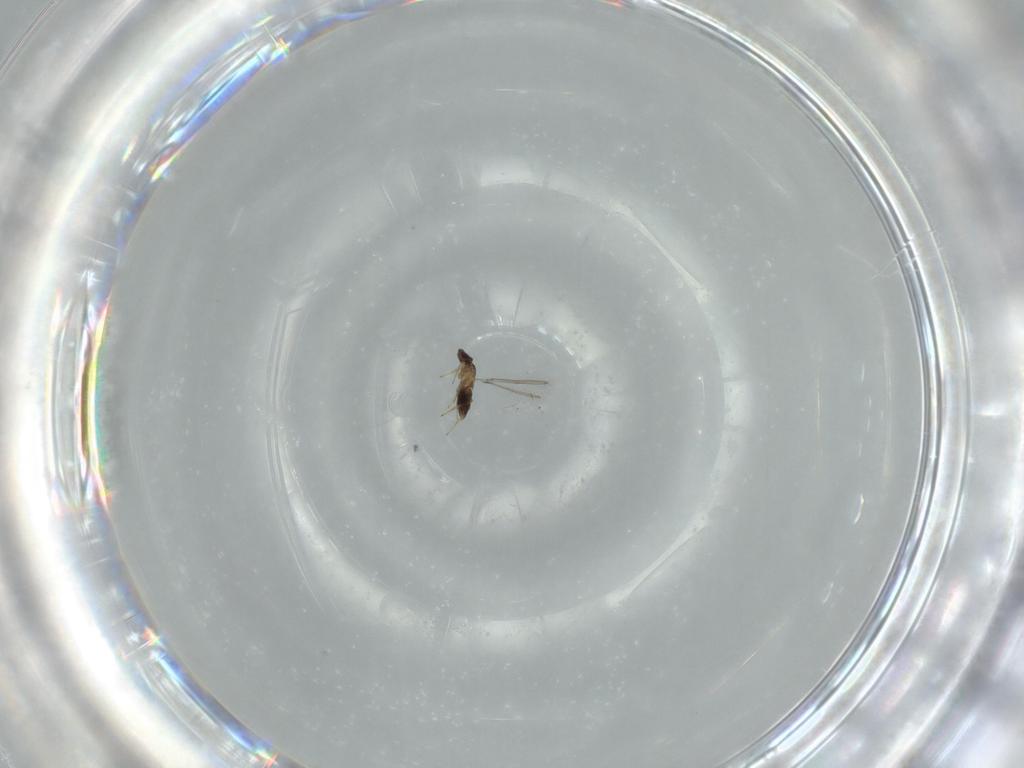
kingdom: Animalia
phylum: Arthropoda
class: Insecta
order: Hymenoptera
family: Mymaridae
